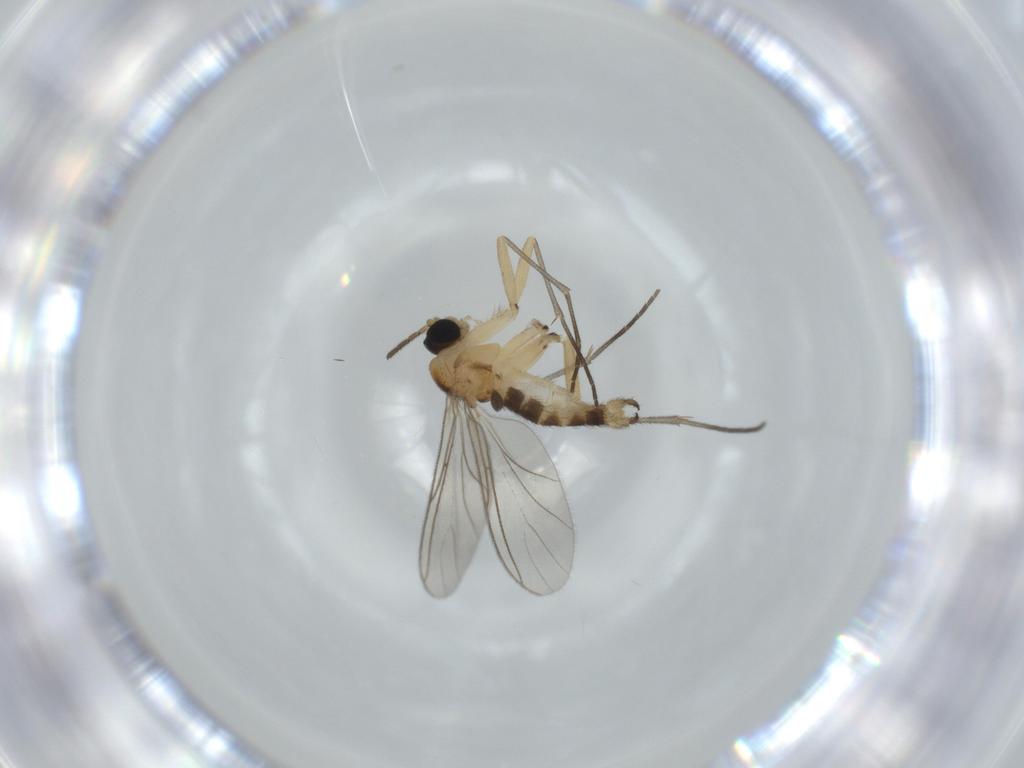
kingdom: Animalia
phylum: Arthropoda
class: Insecta
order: Diptera
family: Sciaridae
